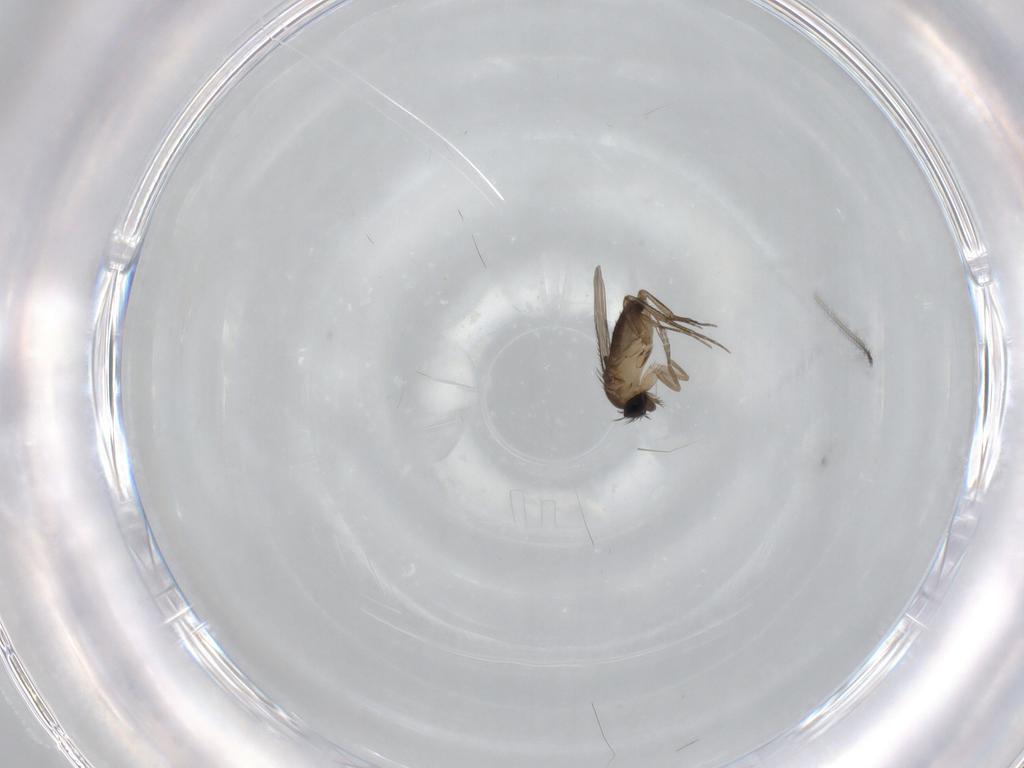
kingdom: Animalia
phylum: Arthropoda
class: Insecta
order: Diptera
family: Phoridae
